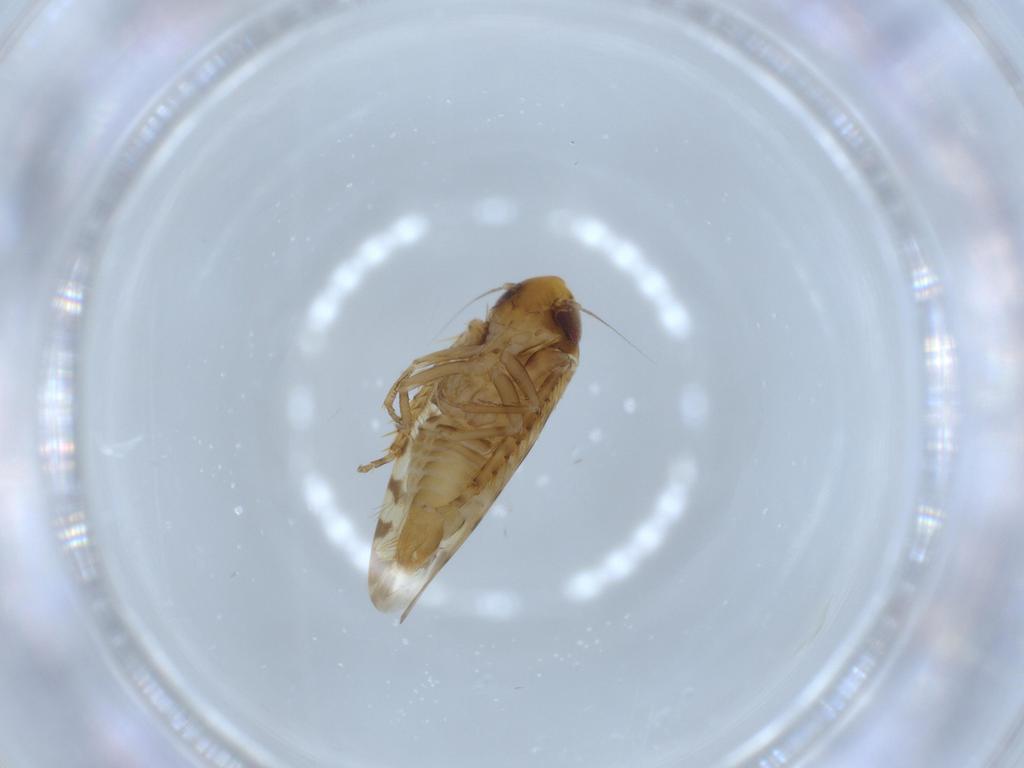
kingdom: Animalia
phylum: Arthropoda
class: Insecta
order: Hemiptera
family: Cicadellidae
